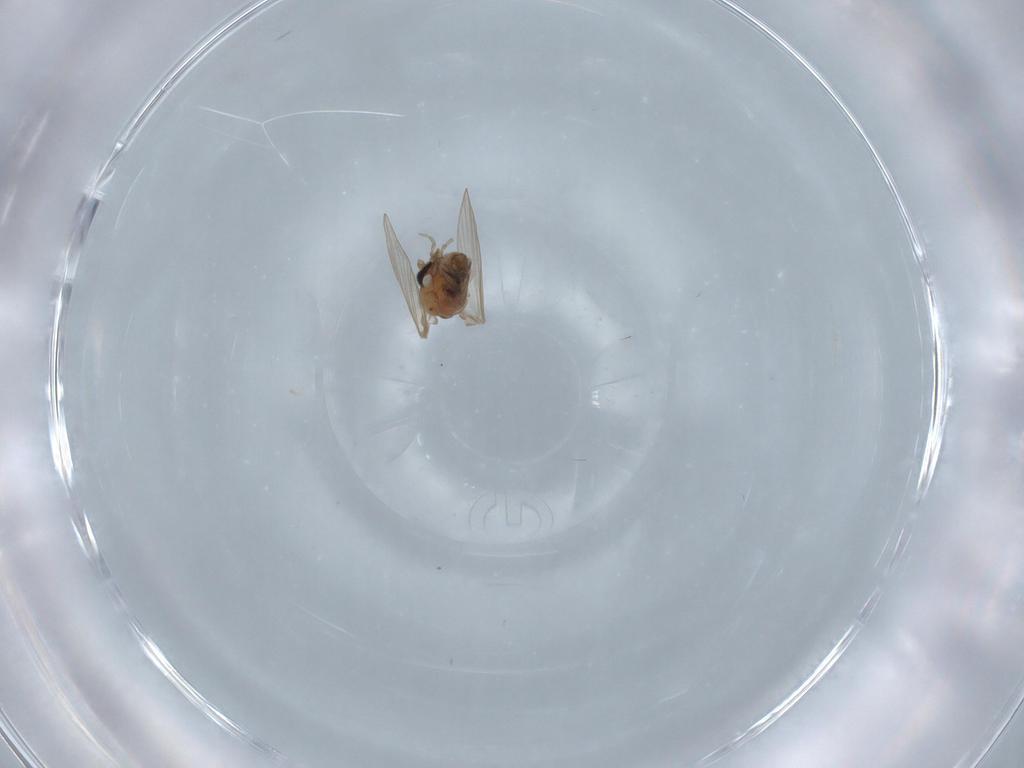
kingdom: Animalia
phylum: Arthropoda
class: Insecta
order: Diptera
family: Psychodidae
